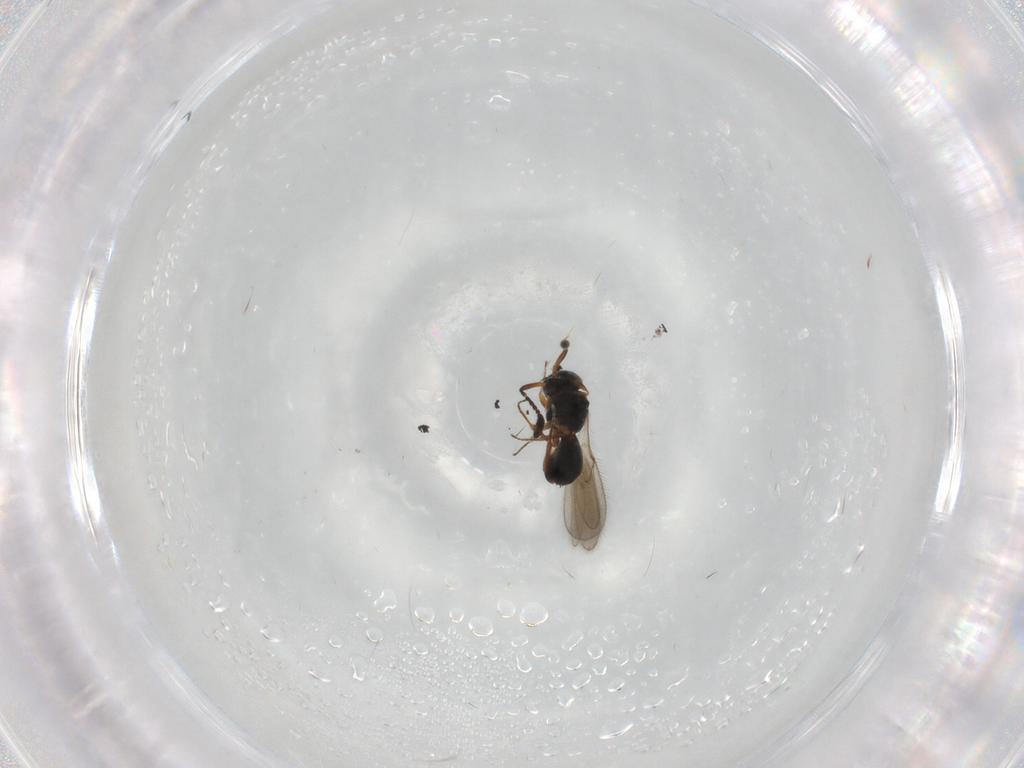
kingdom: Animalia
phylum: Arthropoda
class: Insecta
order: Hymenoptera
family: Scelionidae
